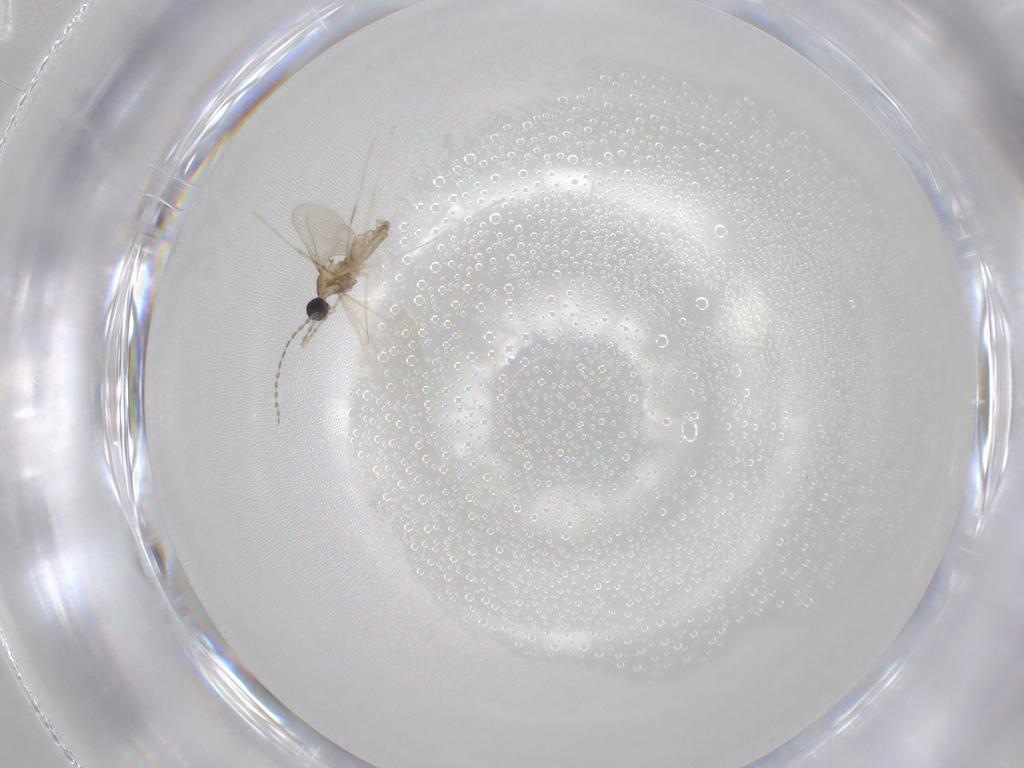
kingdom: Animalia
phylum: Arthropoda
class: Insecta
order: Diptera
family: Cecidomyiidae
